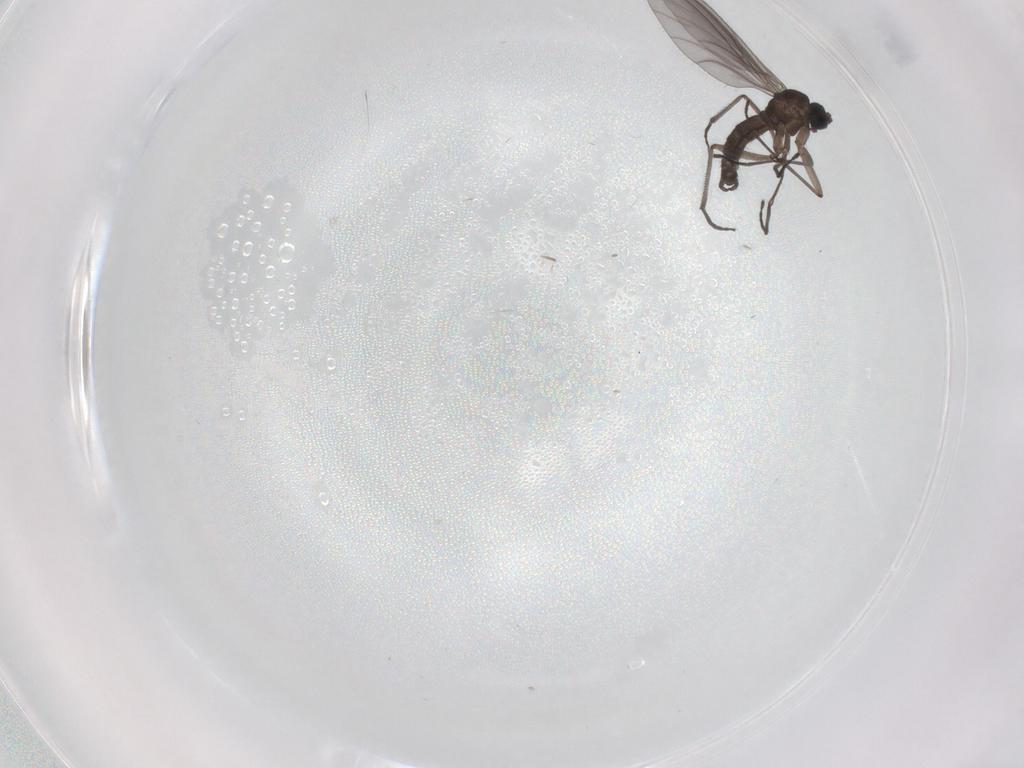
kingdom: Animalia
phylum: Arthropoda
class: Insecta
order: Diptera
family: Sciaridae
